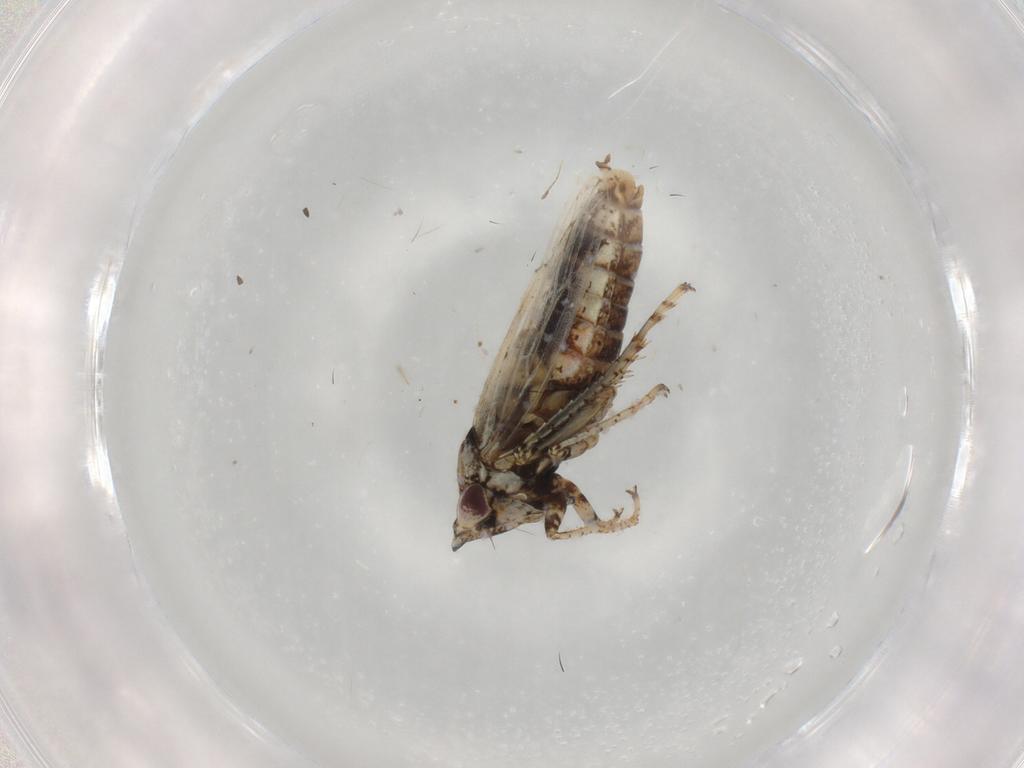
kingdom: Animalia
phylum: Arthropoda
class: Insecta
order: Hemiptera
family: Cicadellidae
